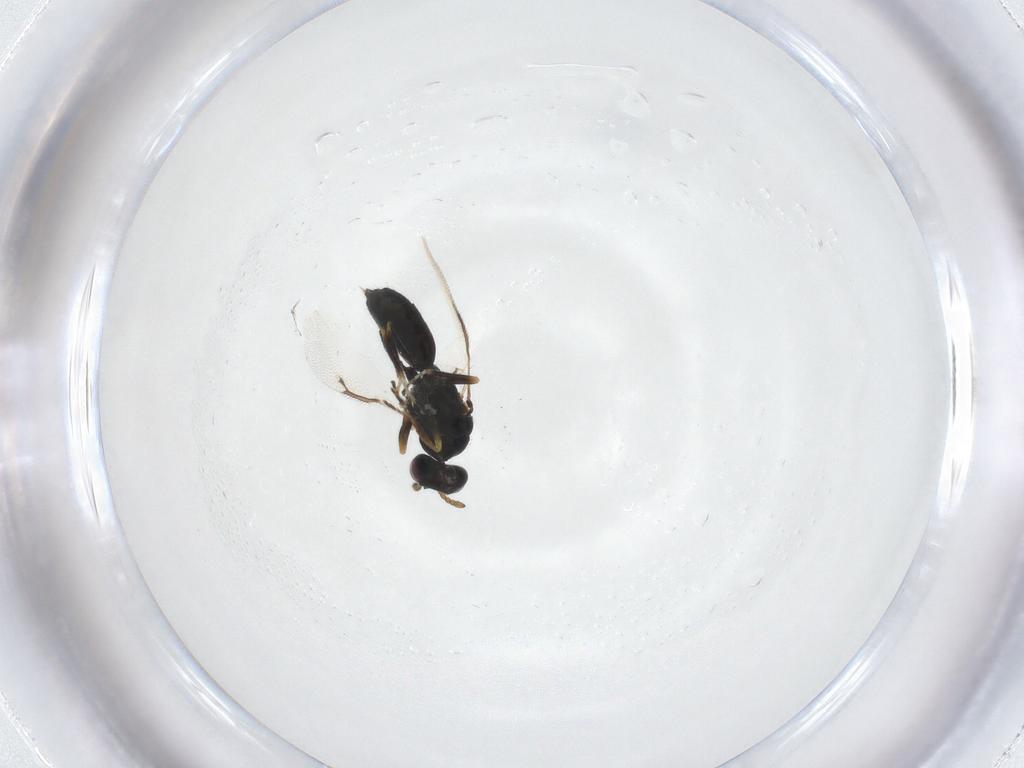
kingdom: Animalia
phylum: Arthropoda
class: Insecta
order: Hymenoptera
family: Eulophidae
